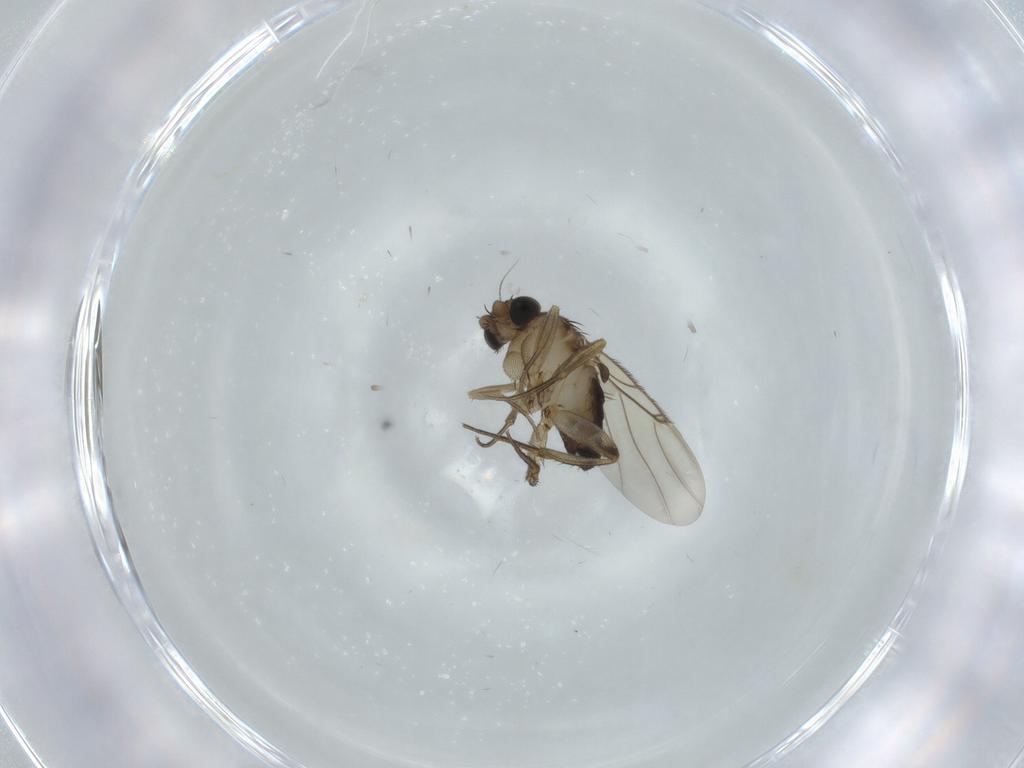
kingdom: Animalia
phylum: Arthropoda
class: Insecta
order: Diptera
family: Phoridae
